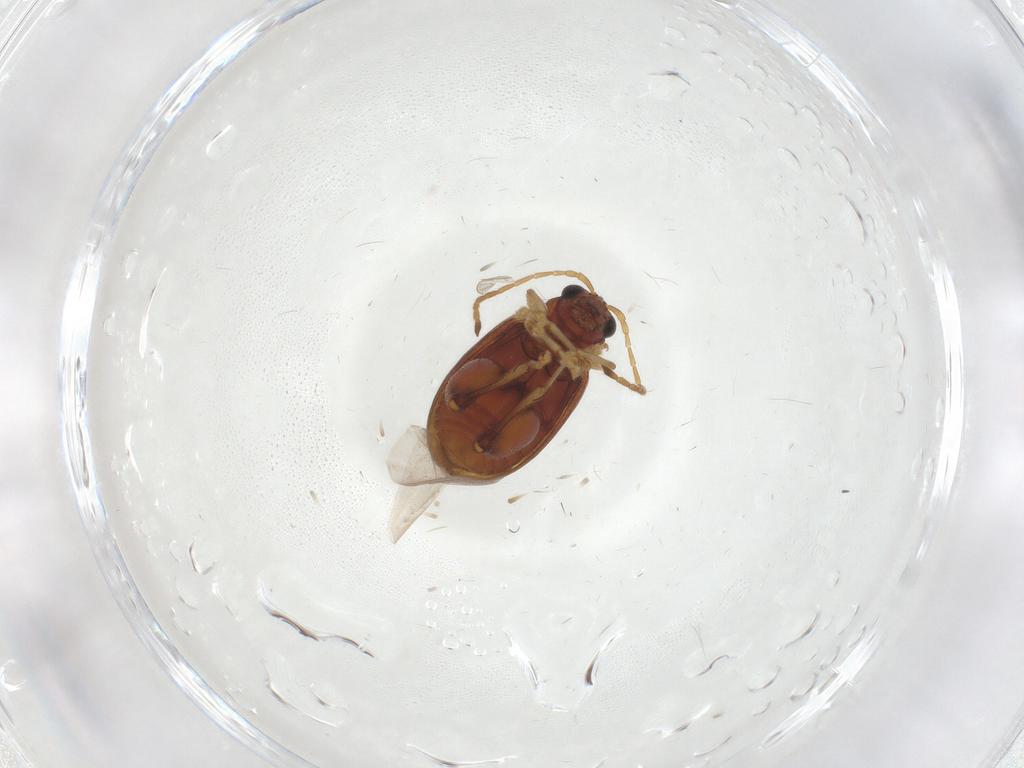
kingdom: Animalia
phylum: Arthropoda
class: Insecta
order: Coleoptera
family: Chrysomelidae
